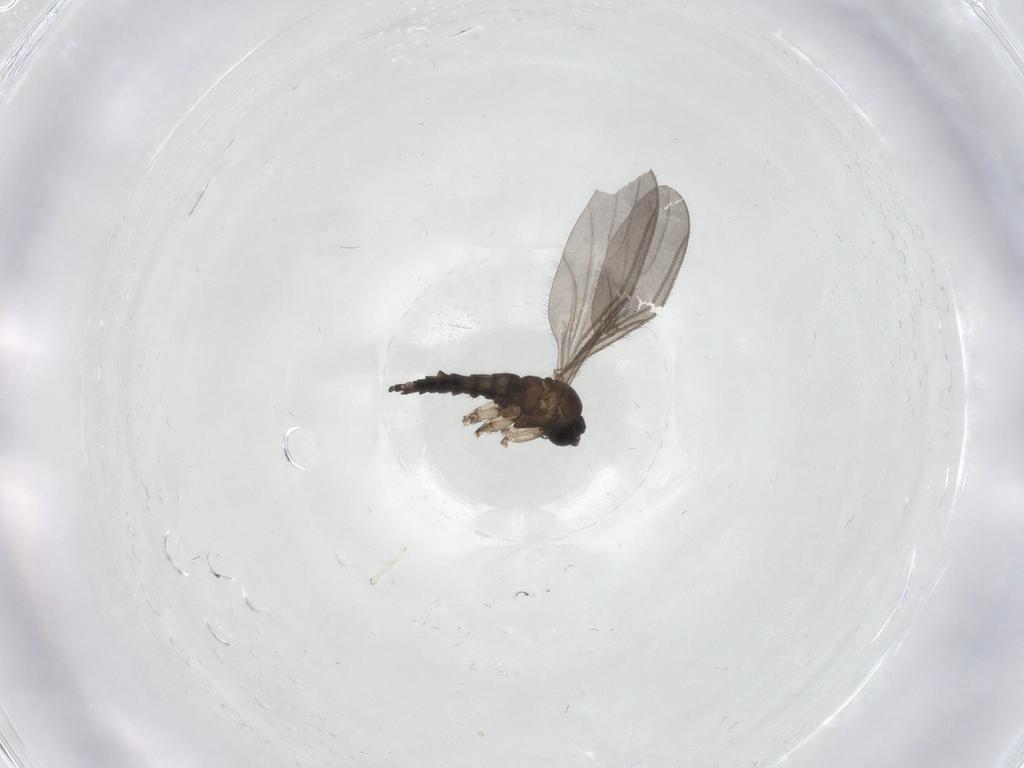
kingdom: Animalia
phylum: Arthropoda
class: Insecta
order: Diptera
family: Sciaridae
